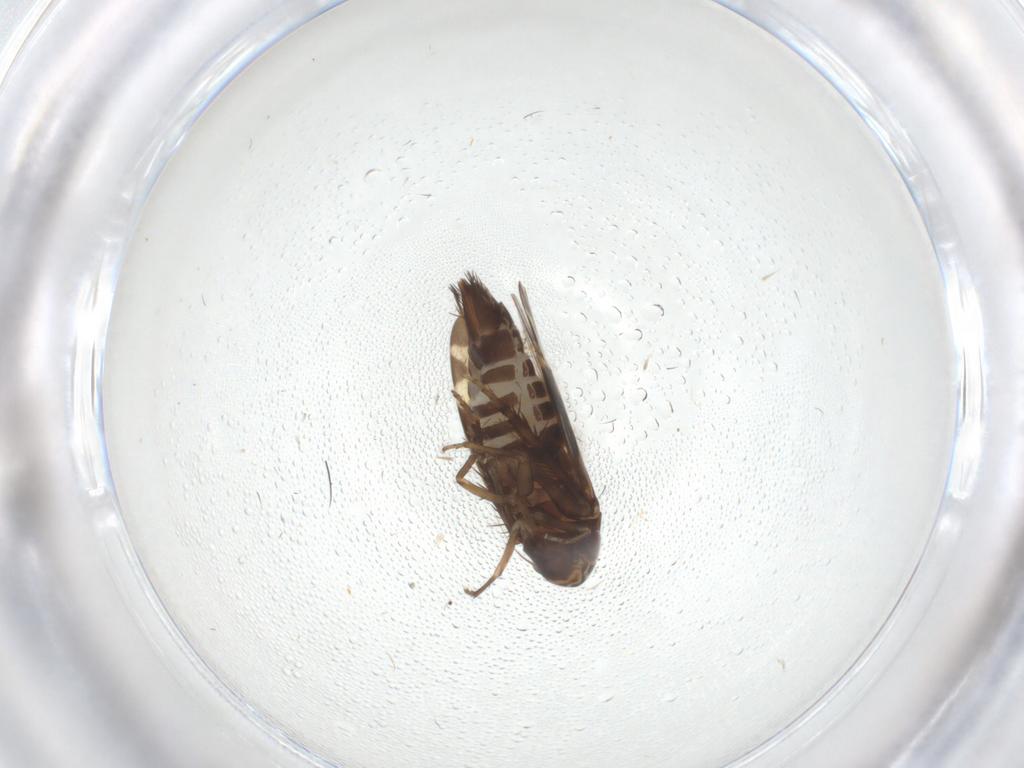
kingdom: Animalia
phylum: Arthropoda
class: Insecta
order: Hemiptera
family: Cicadellidae
